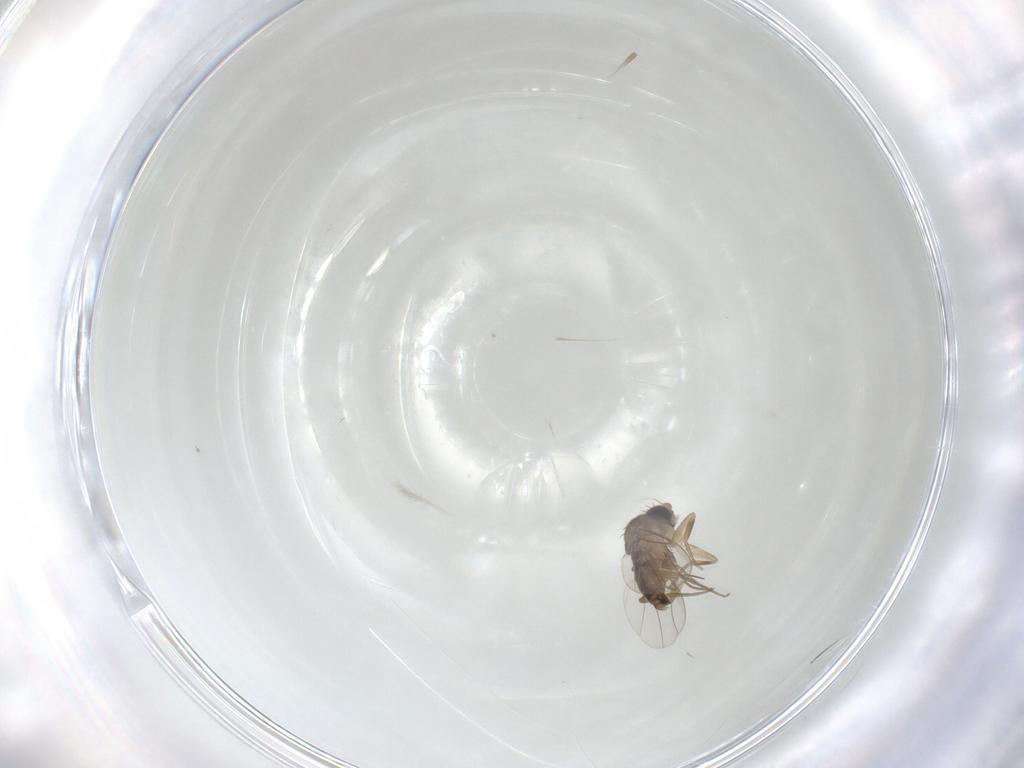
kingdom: Animalia
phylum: Arthropoda
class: Insecta
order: Diptera
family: Phoridae
